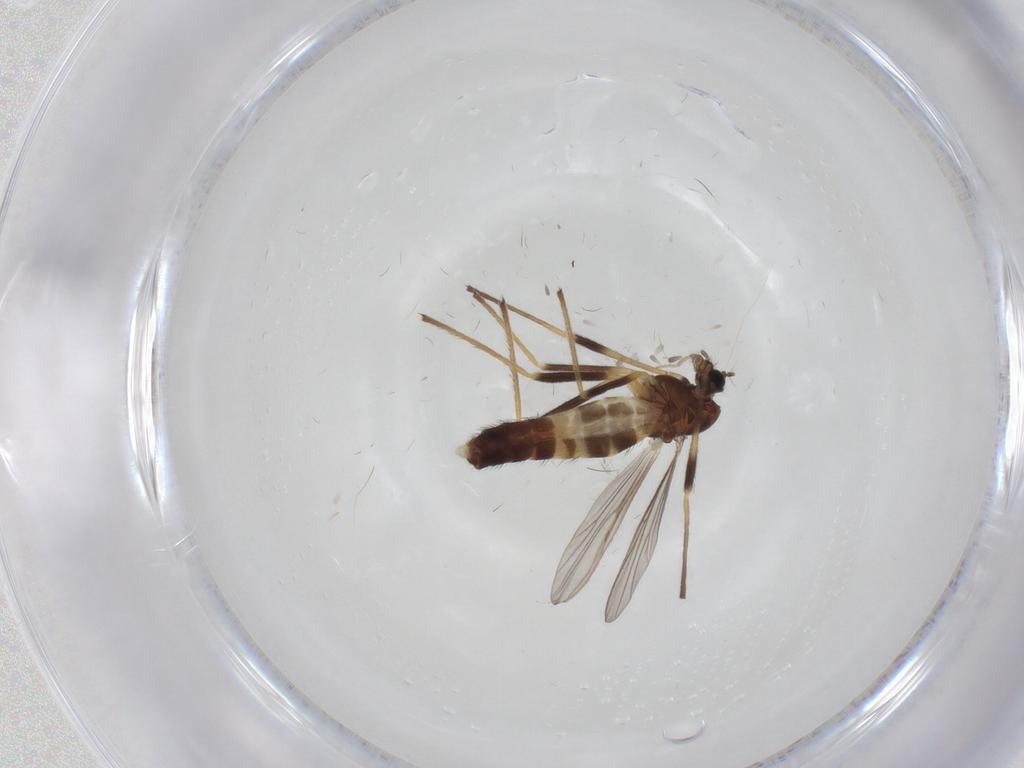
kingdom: Animalia
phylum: Arthropoda
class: Insecta
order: Diptera
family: Chironomidae
